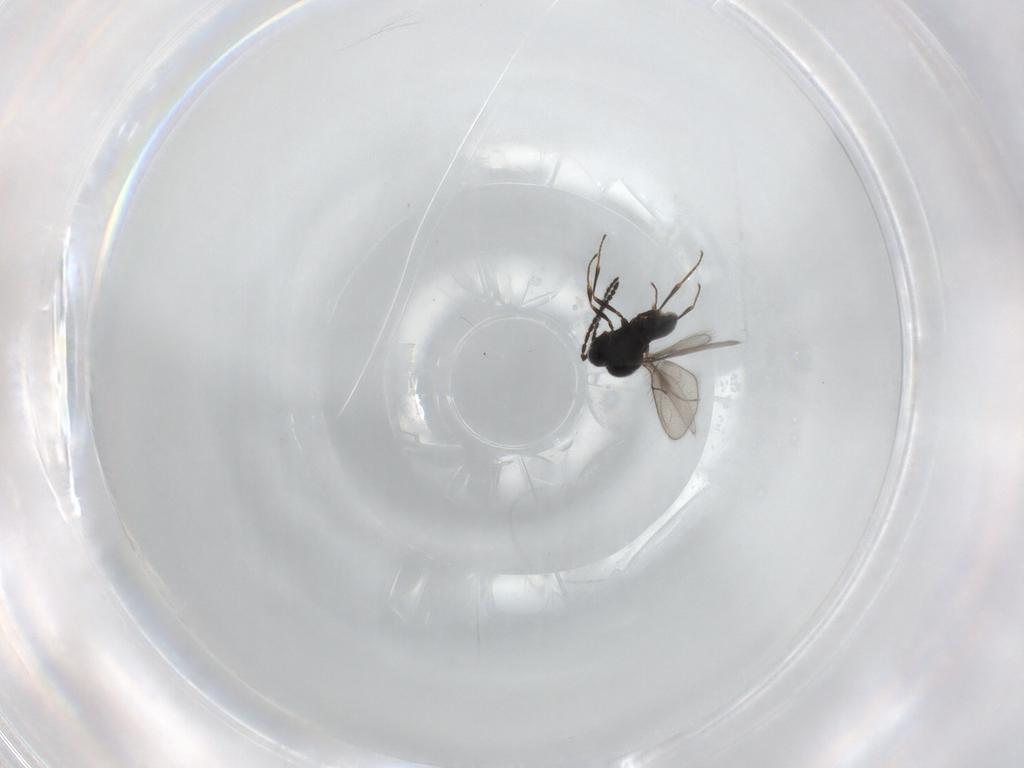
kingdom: Animalia
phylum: Arthropoda
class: Insecta
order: Hymenoptera
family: Scelionidae
